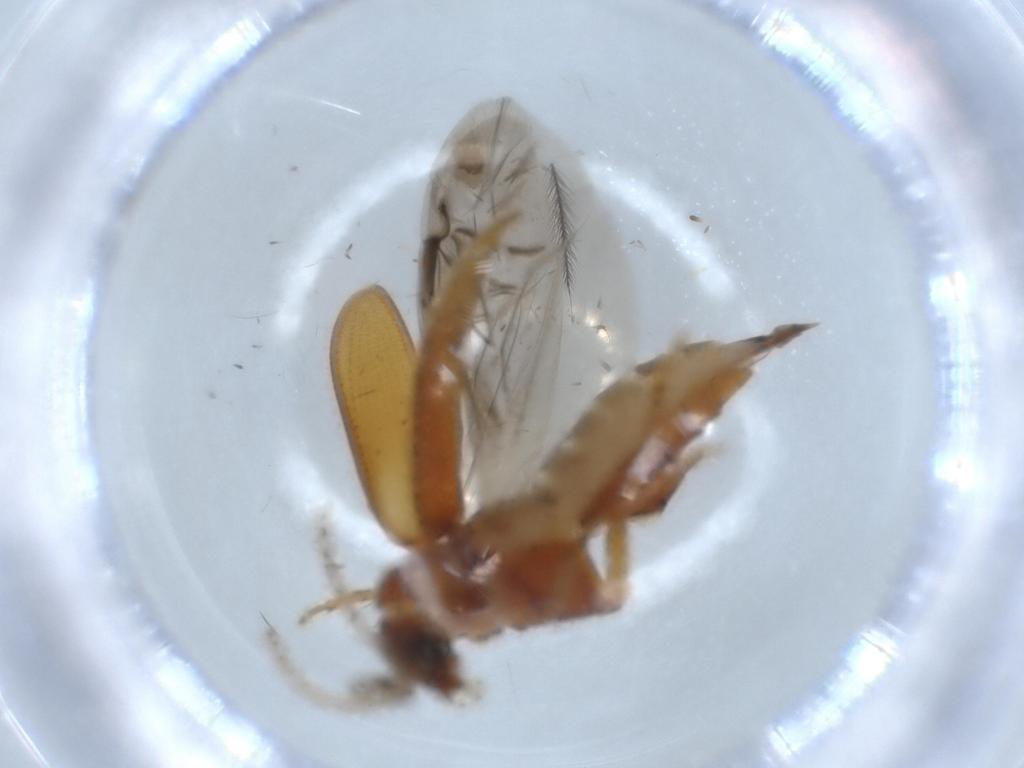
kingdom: Animalia
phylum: Arthropoda
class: Insecta
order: Coleoptera
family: Ptilodactylidae
